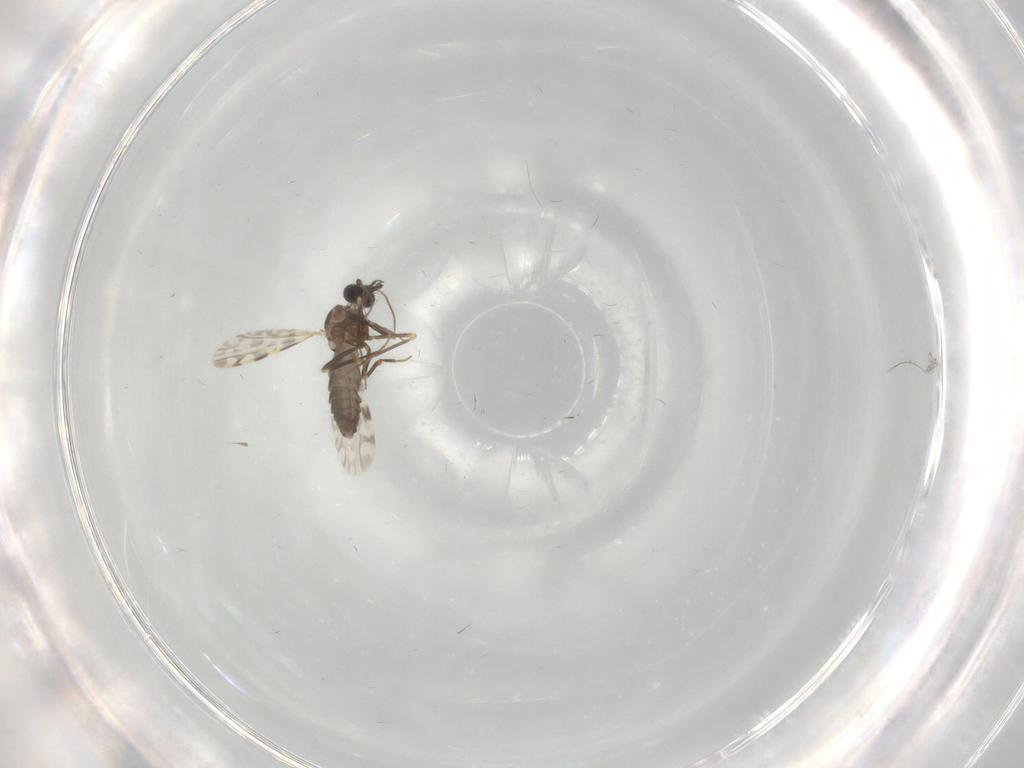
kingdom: Animalia
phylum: Arthropoda
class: Insecta
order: Diptera
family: Ceratopogonidae
